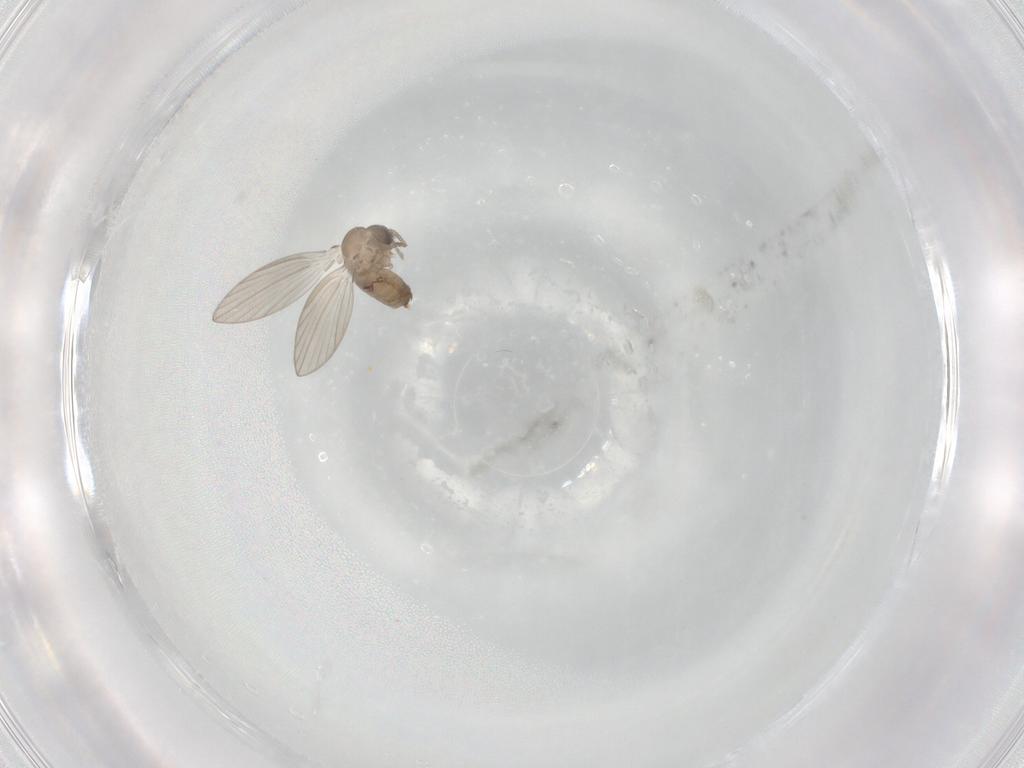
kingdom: Animalia
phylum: Arthropoda
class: Insecta
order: Diptera
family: Psychodidae
